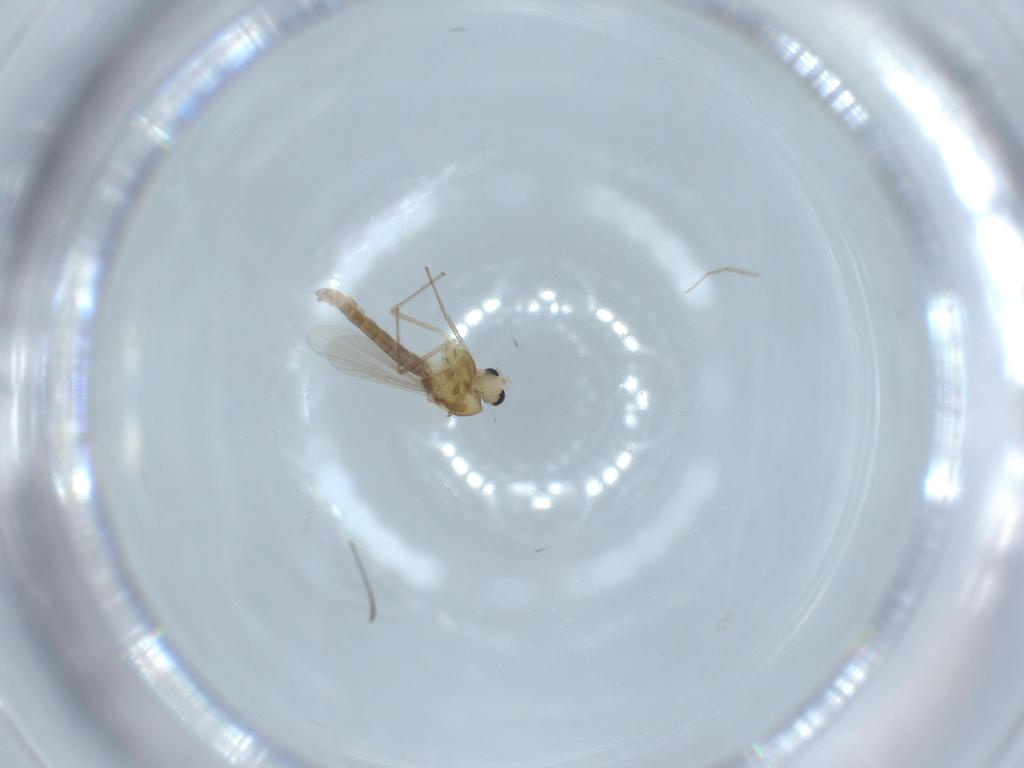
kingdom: Animalia
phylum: Arthropoda
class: Insecta
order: Diptera
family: Chironomidae
